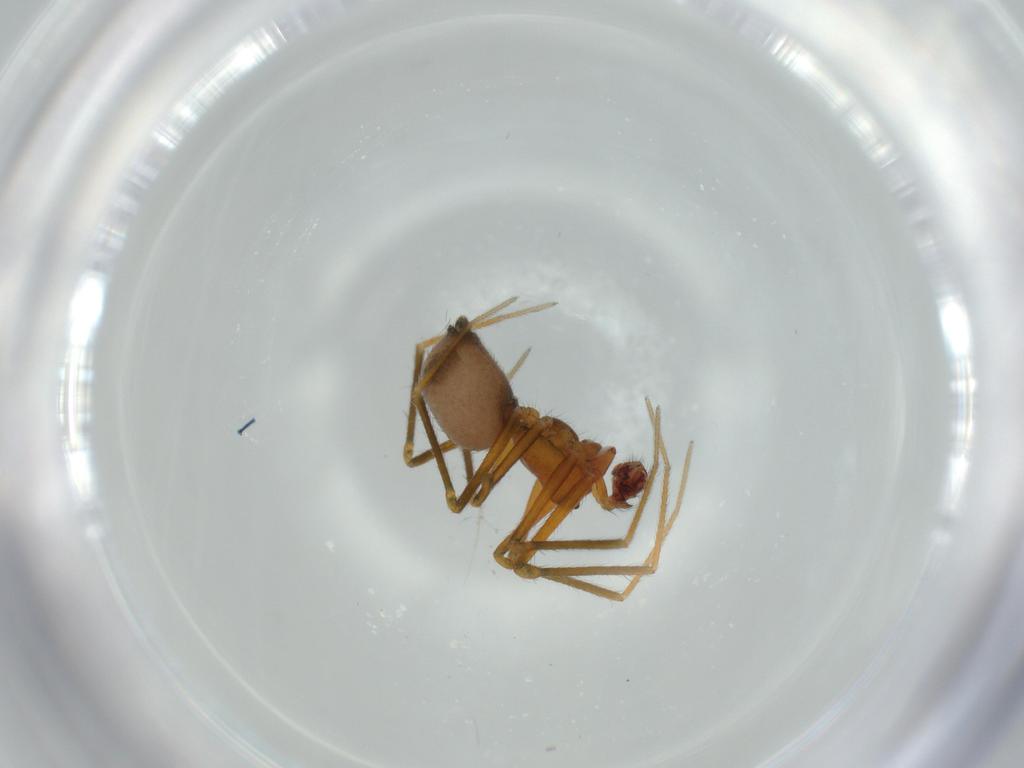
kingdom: Animalia
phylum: Arthropoda
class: Arachnida
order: Araneae
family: Linyphiidae
